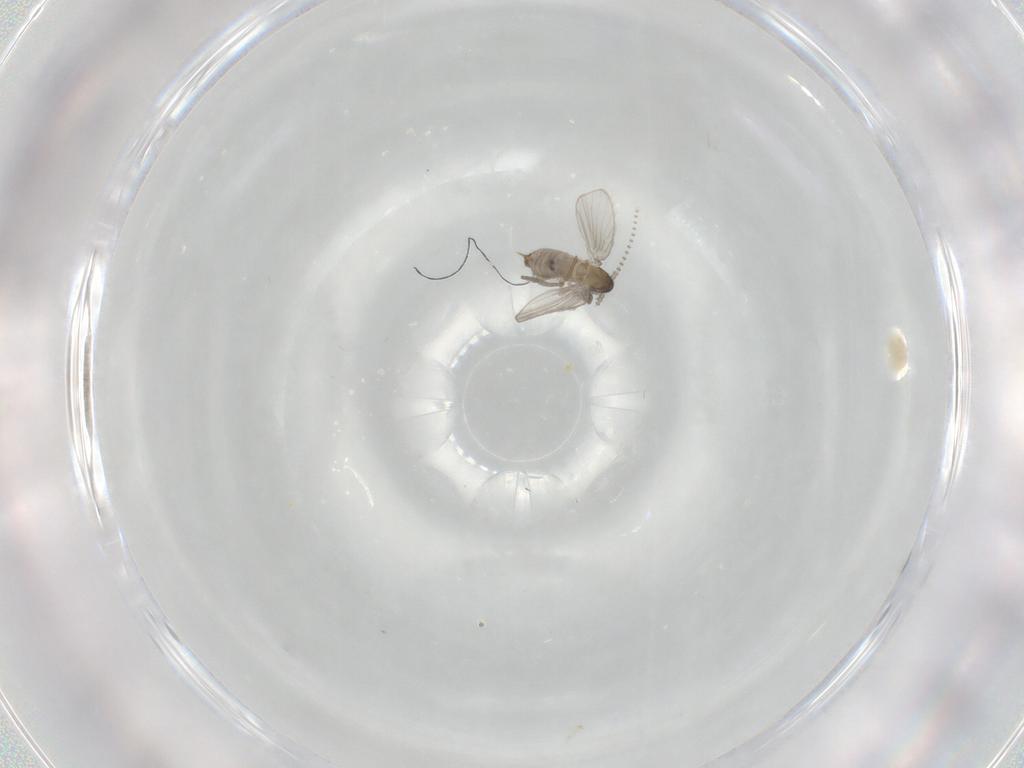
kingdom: Animalia
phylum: Arthropoda
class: Insecta
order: Diptera
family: Psychodidae
